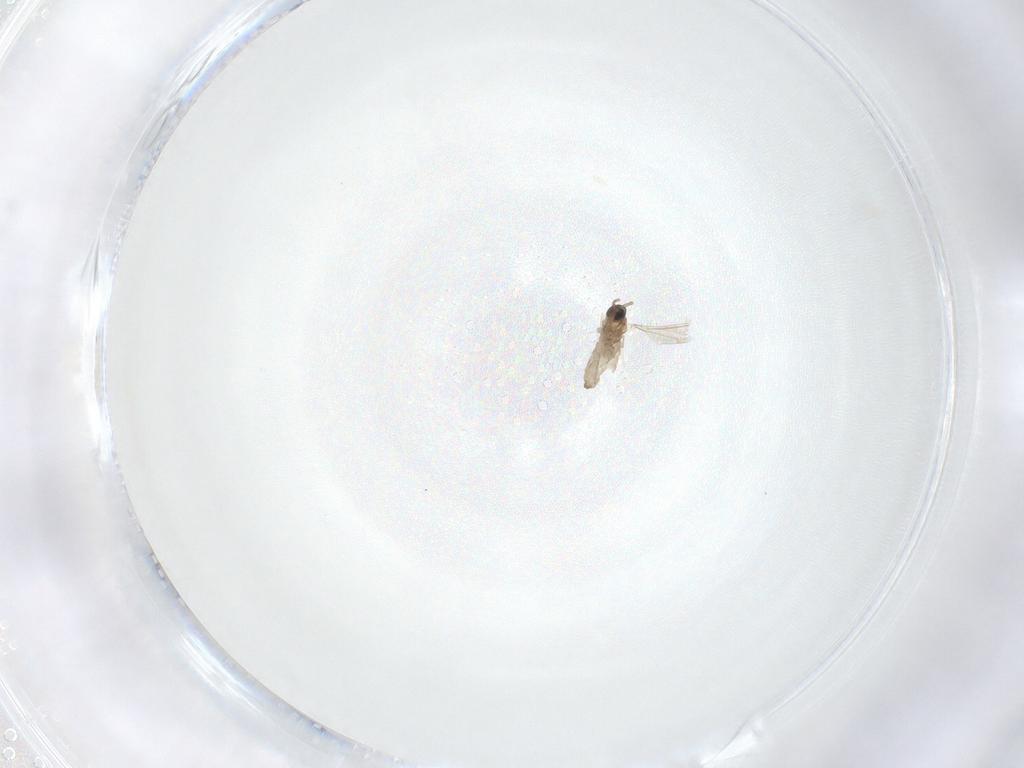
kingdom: Animalia
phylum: Arthropoda
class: Insecta
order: Diptera
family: Cecidomyiidae
